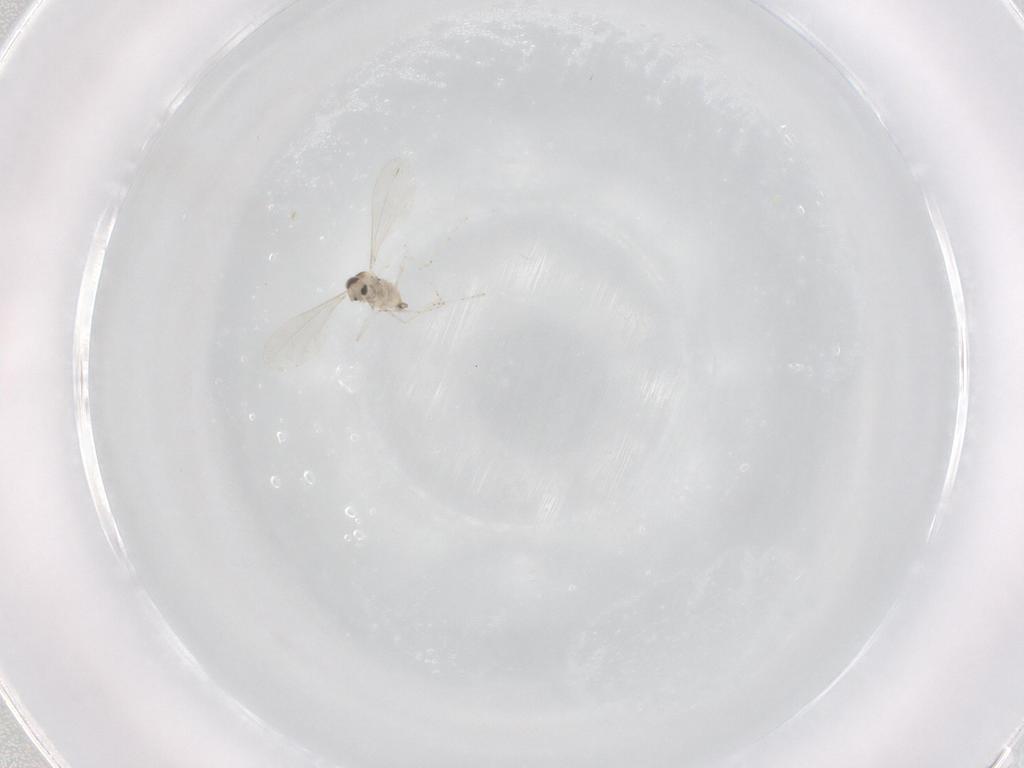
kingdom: Animalia
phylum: Arthropoda
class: Insecta
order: Diptera
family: Cecidomyiidae
